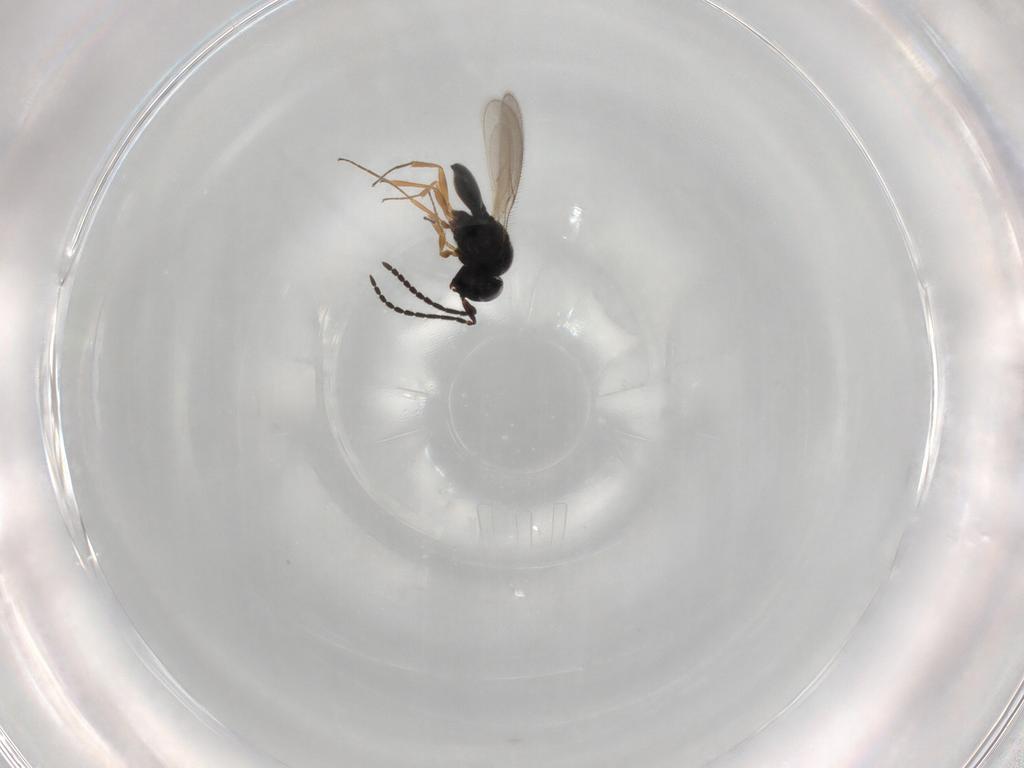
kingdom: Animalia
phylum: Arthropoda
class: Insecta
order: Hymenoptera
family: Scelionidae
